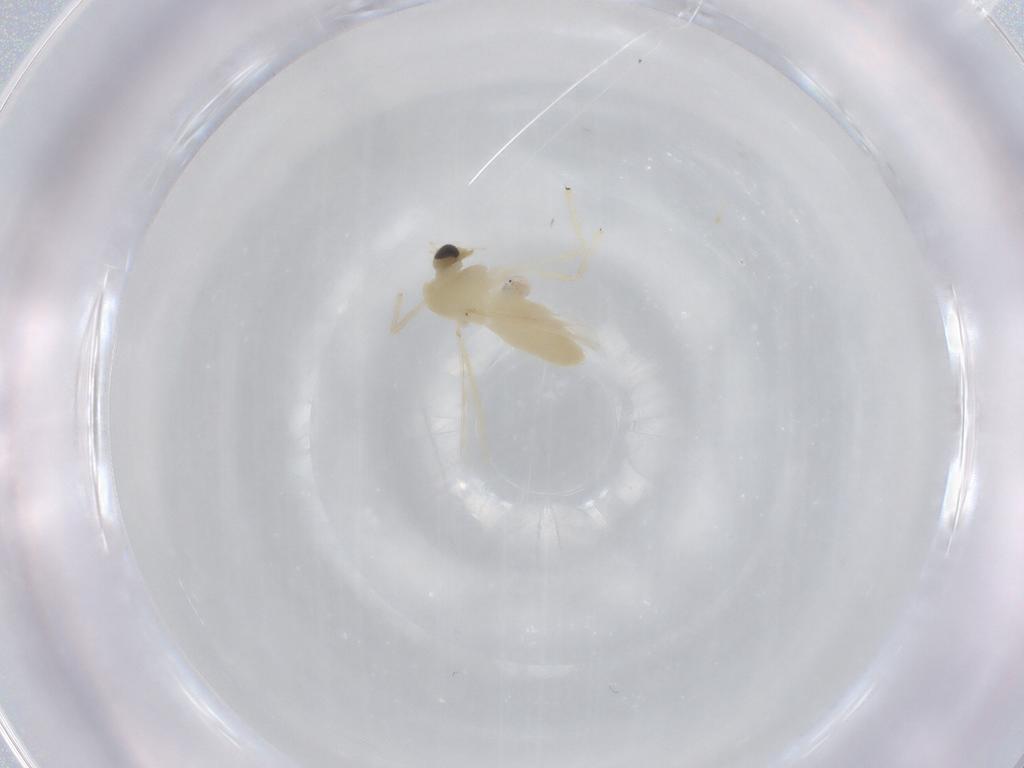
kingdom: Animalia
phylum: Arthropoda
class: Insecta
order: Diptera
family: Chironomidae
